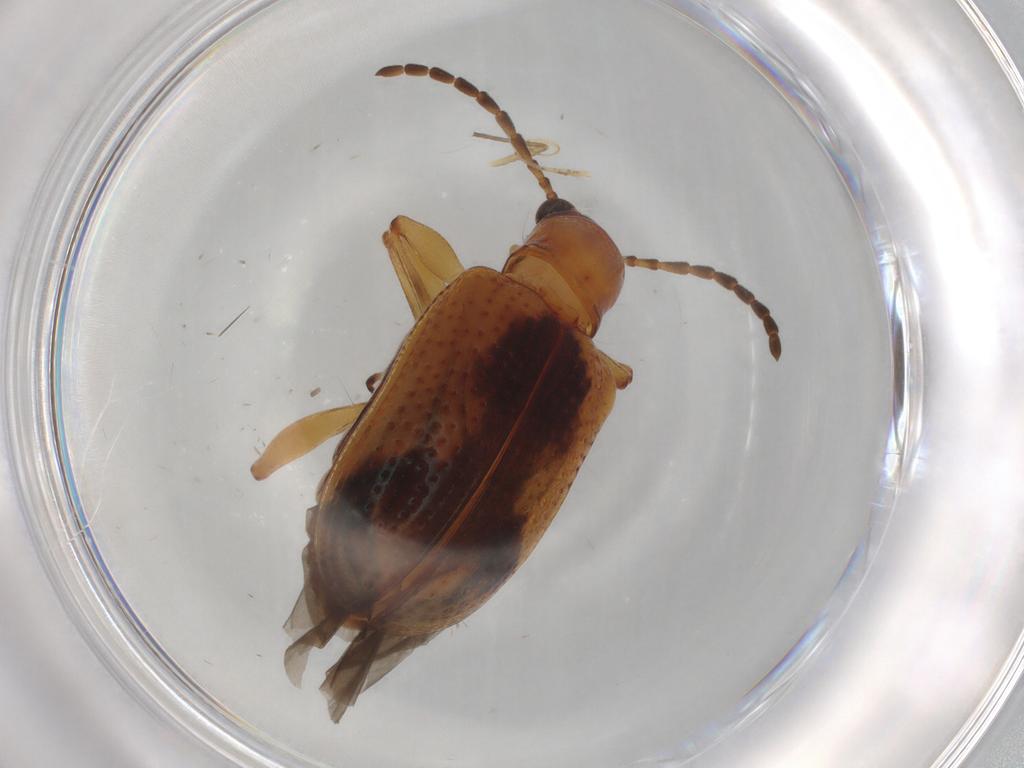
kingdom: Animalia
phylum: Arthropoda
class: Insecta
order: Coleoptera
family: Chrysomelidae
